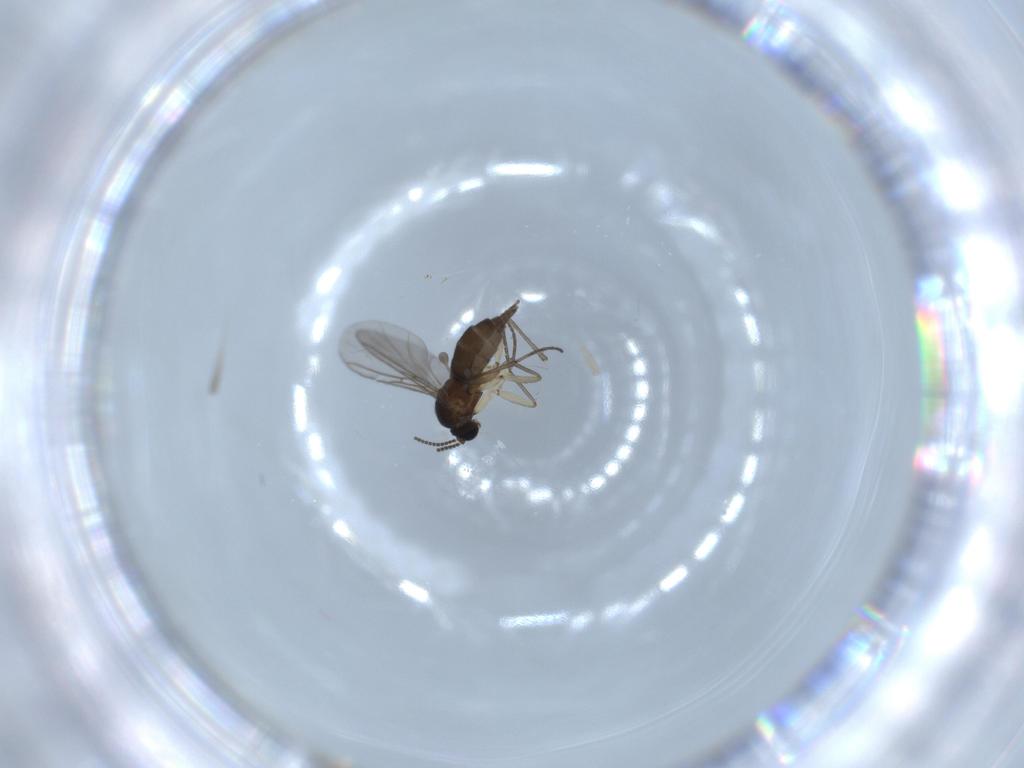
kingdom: Animalia
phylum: Arthropoda
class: Insecta
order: Diptera
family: Sciaridae
